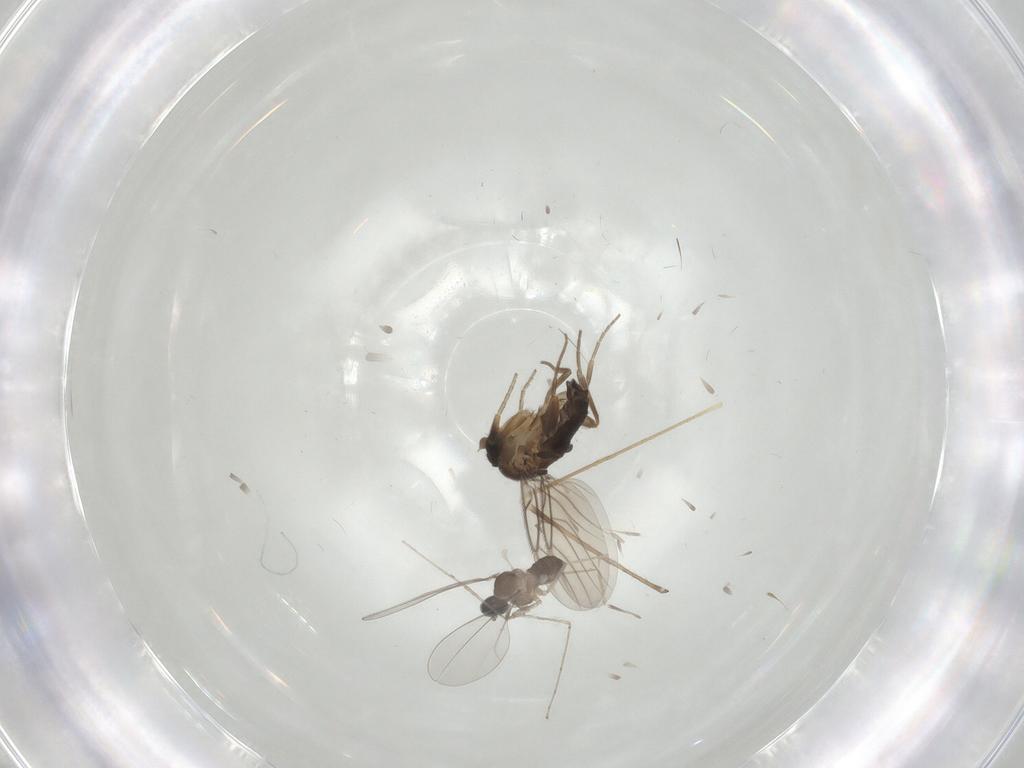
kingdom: Animalia
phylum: Arthropoda
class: Insecta
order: Diptera
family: Phoridae
